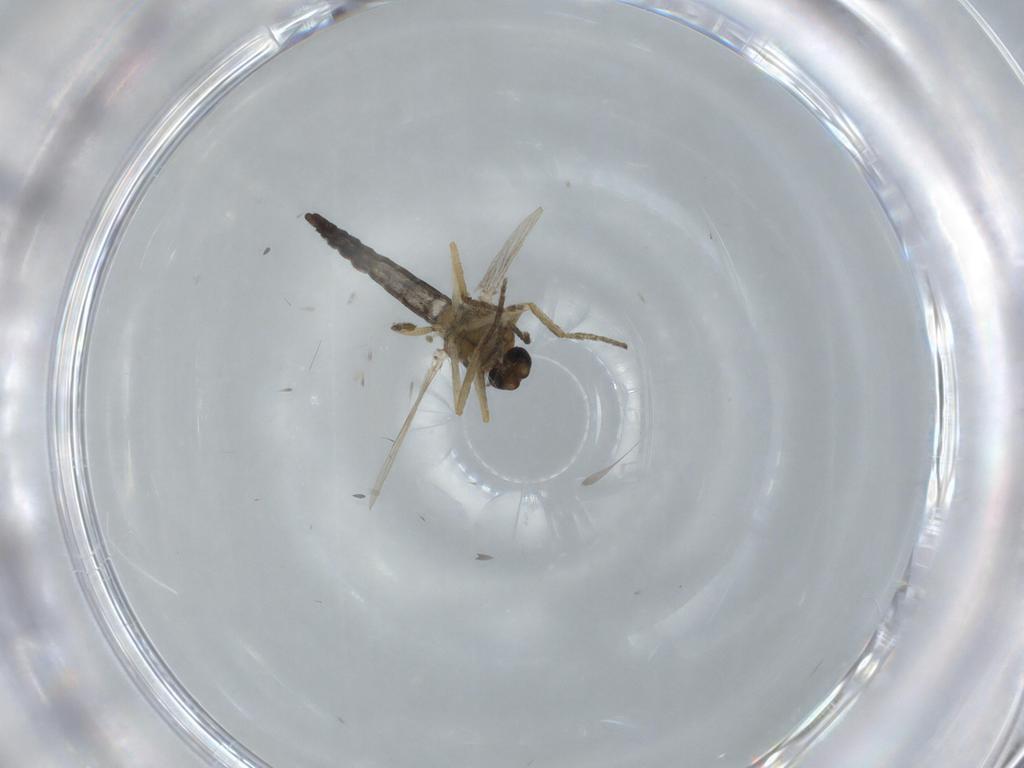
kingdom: Animalia
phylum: Arthropoda
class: Insecta
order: Diptera
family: Ceratopogonidae
